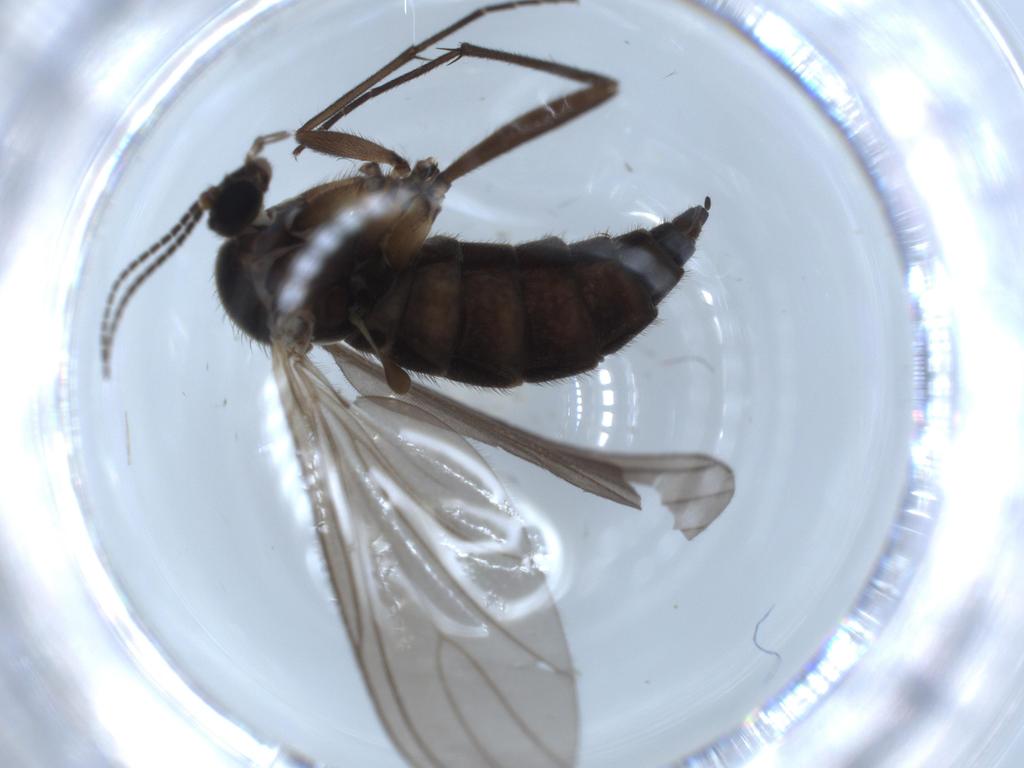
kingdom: Animalia
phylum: Arthropoda
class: Insecta
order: Diptera
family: Sciaridae
